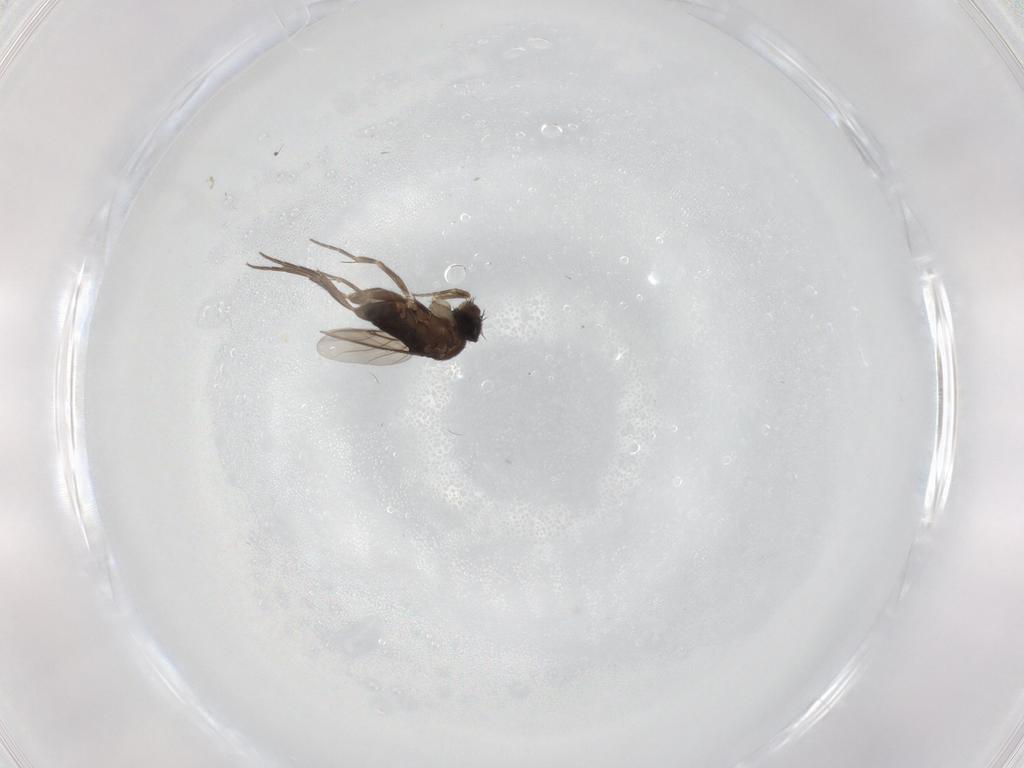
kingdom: Animalia
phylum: Arthropoda
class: Insecta
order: Diptera
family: Phoridae
